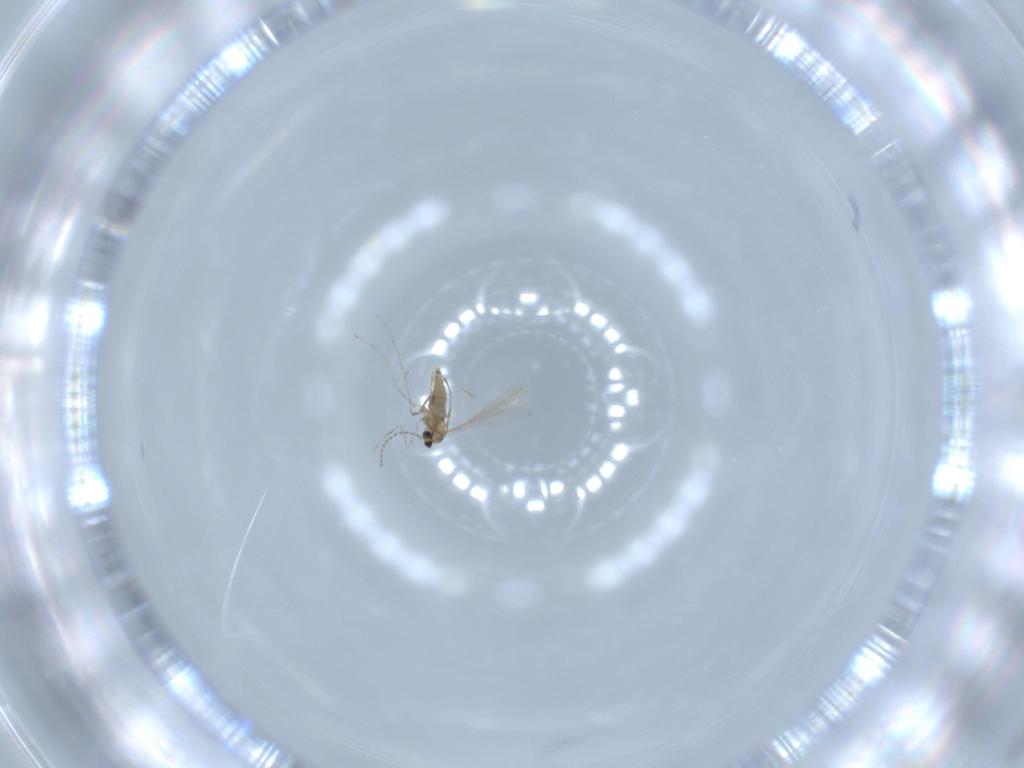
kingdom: Animalia
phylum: Arthropoda
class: Insecta
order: Diptera
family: Cecidomyiidae
